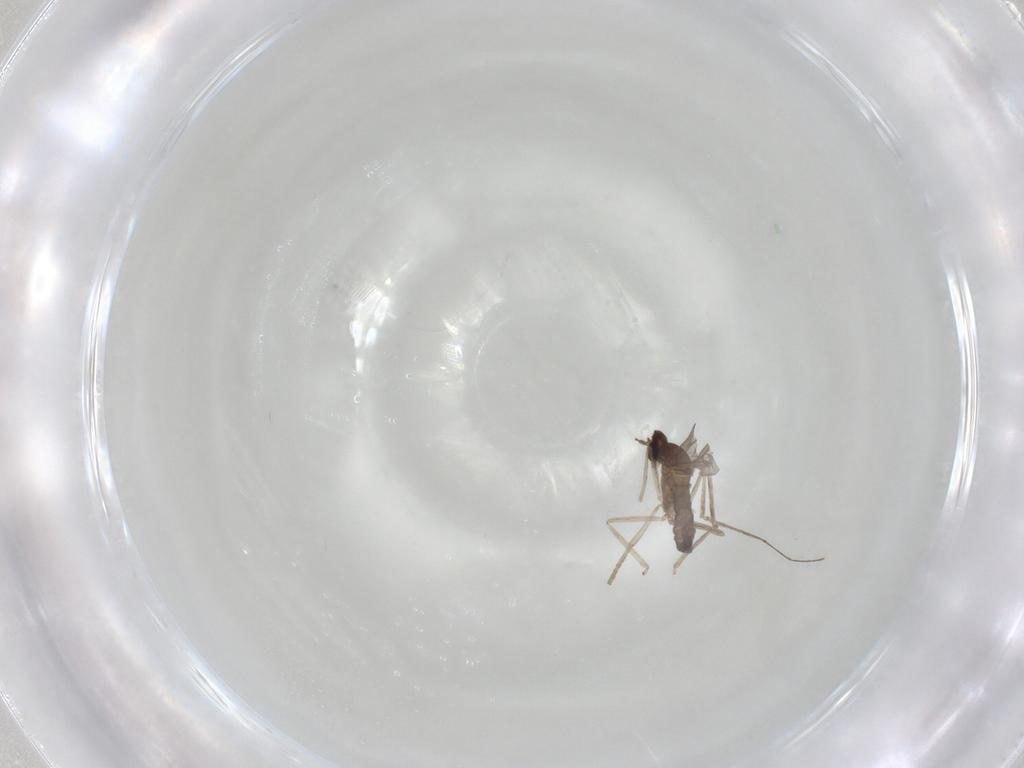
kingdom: Animalia
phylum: Arthropoda
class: Insecta
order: Diptera
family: Cecidomyiidae
